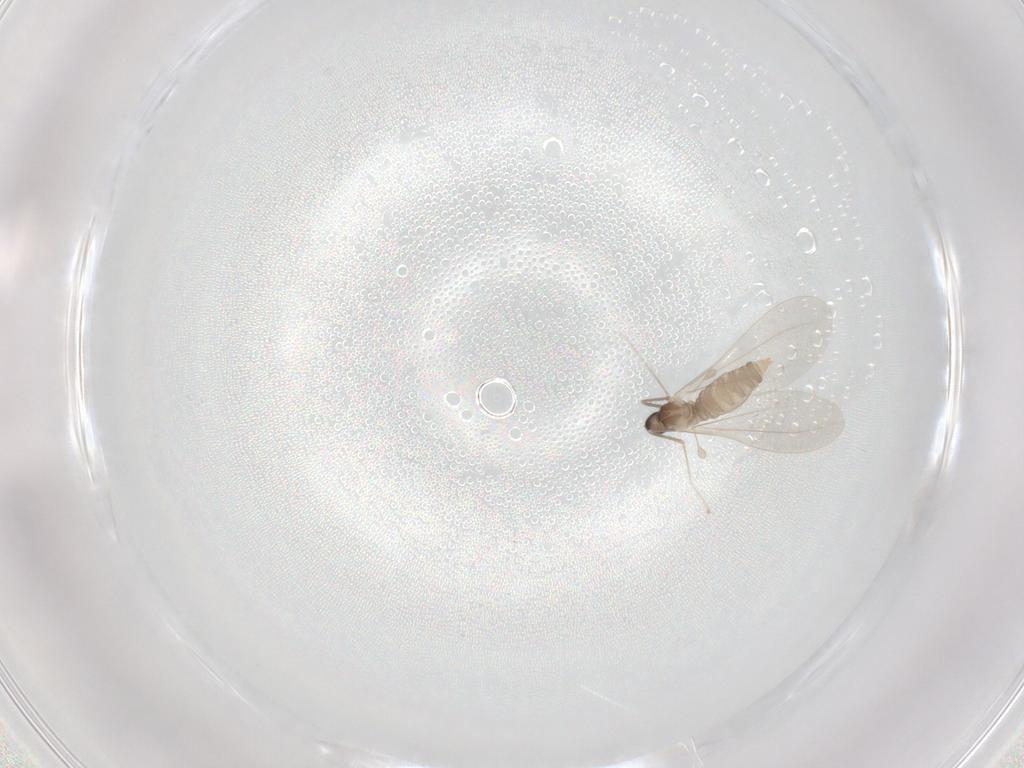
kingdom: Animalia
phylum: Arthropoda
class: Insecta
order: Diptera
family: Cecidomyiidae
